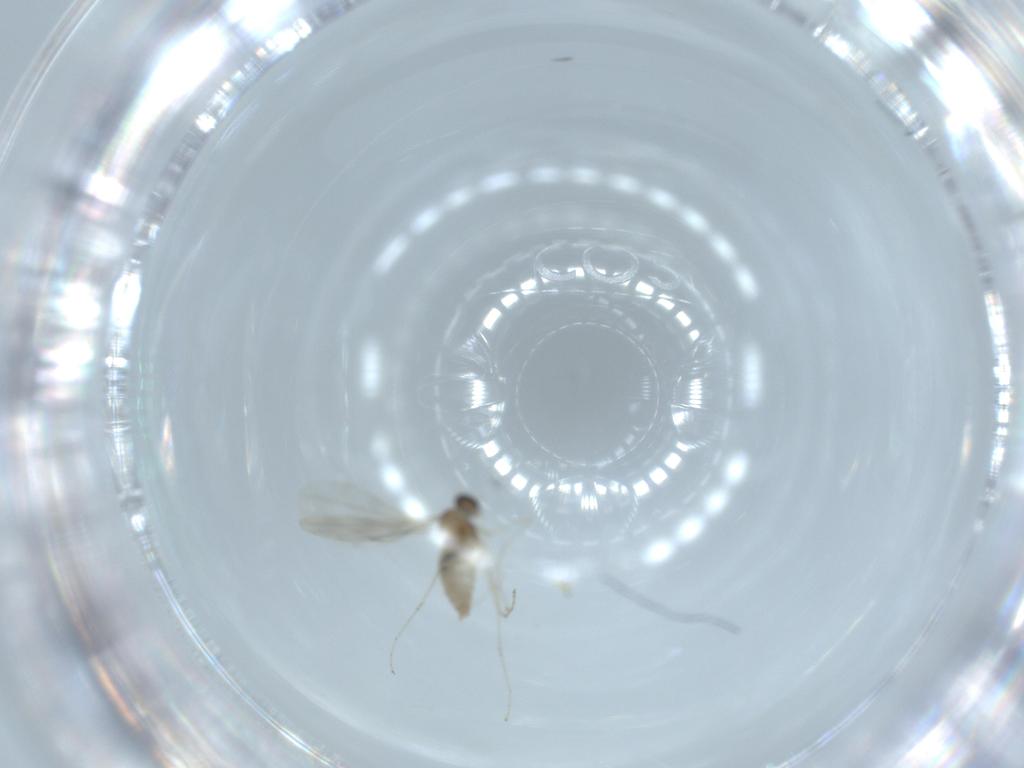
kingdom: Animalia
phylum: Arthropoda
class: Insecta
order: Diptera
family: Cecidomyiidae
